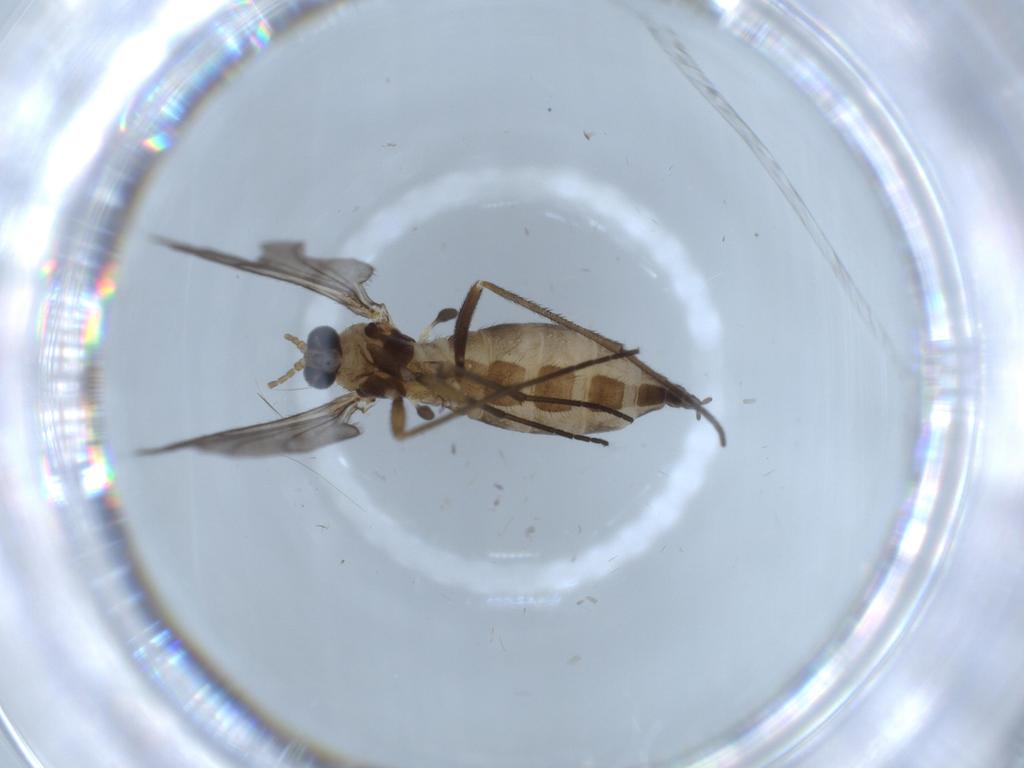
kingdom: Animalia
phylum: Arthropoda
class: Insecta
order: Diptera
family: Sciaridae
